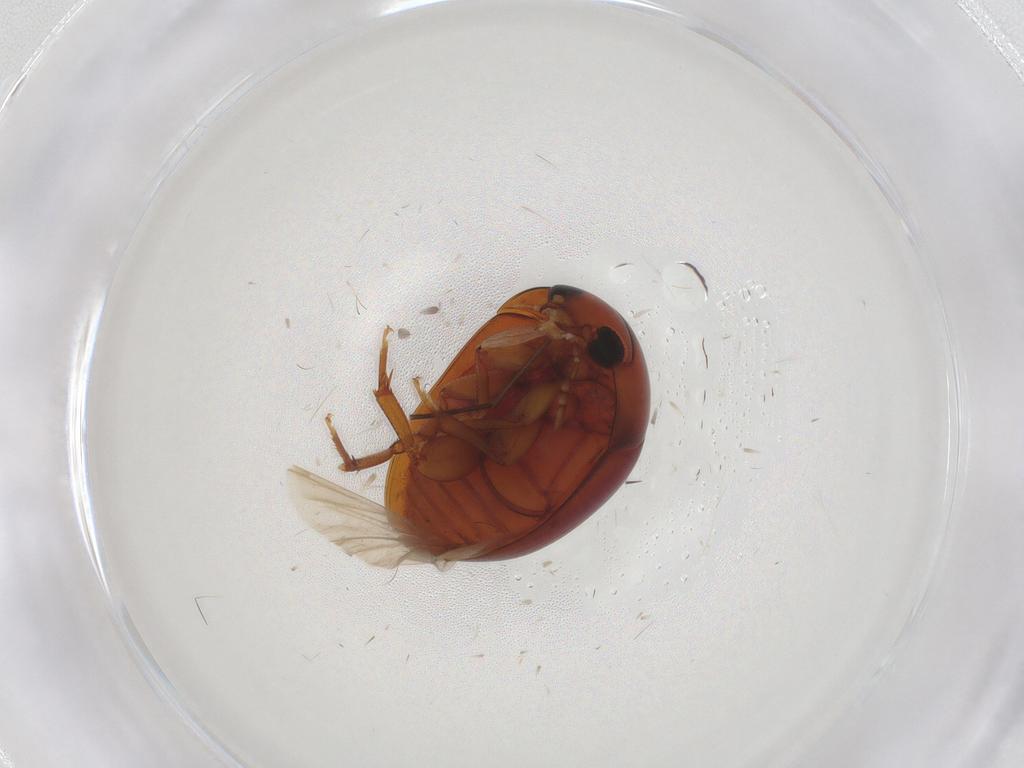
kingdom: Animalia
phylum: Arthropoda
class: Insecta
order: Coleoptera
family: Phalacridae
